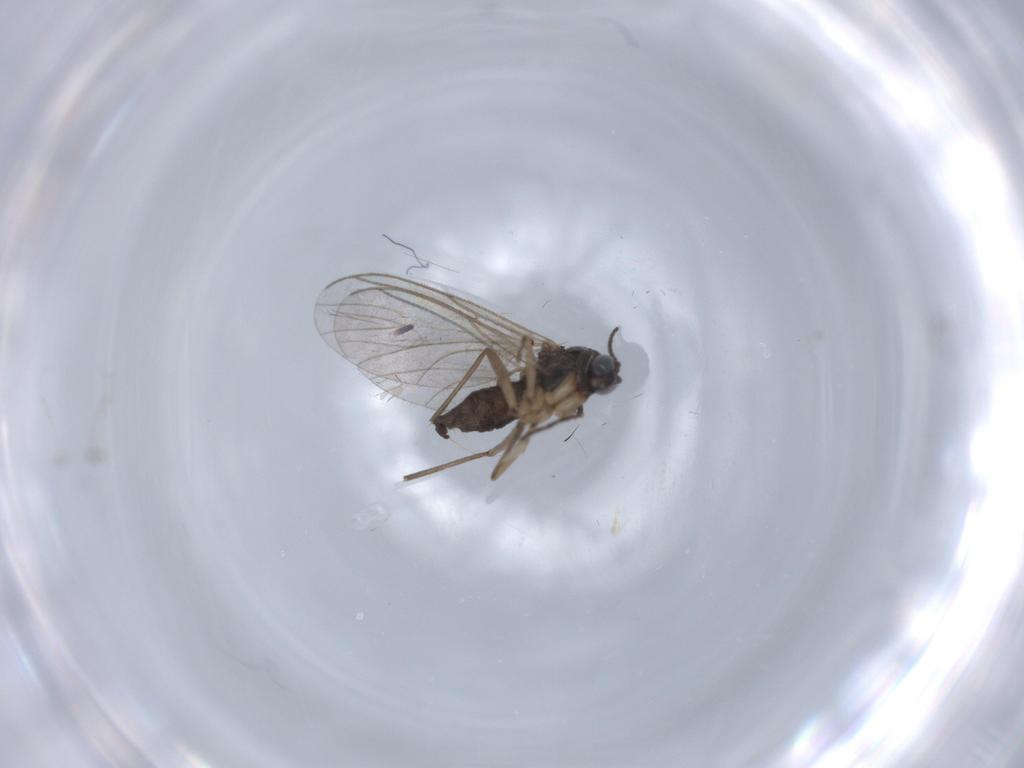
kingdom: Animalia
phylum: Arthropoda
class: Insecta
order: Diptera
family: Sciaridae
